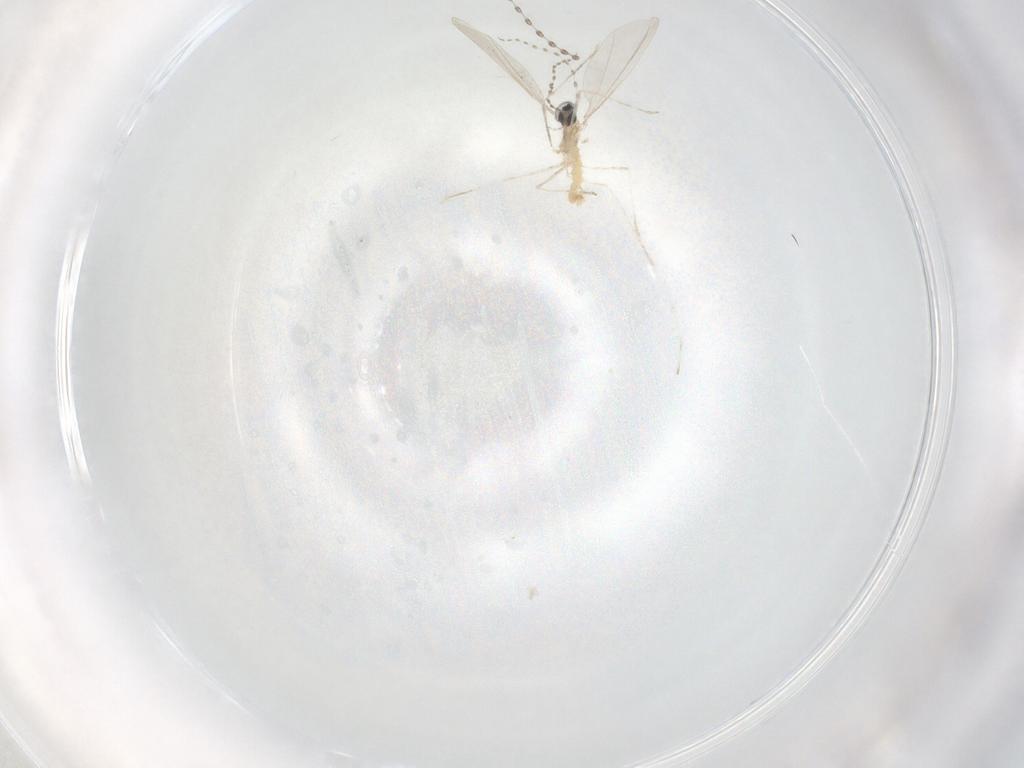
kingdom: Animalia
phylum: Arthropoda
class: Insecta
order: Diptera
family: Cecidomyiidae
